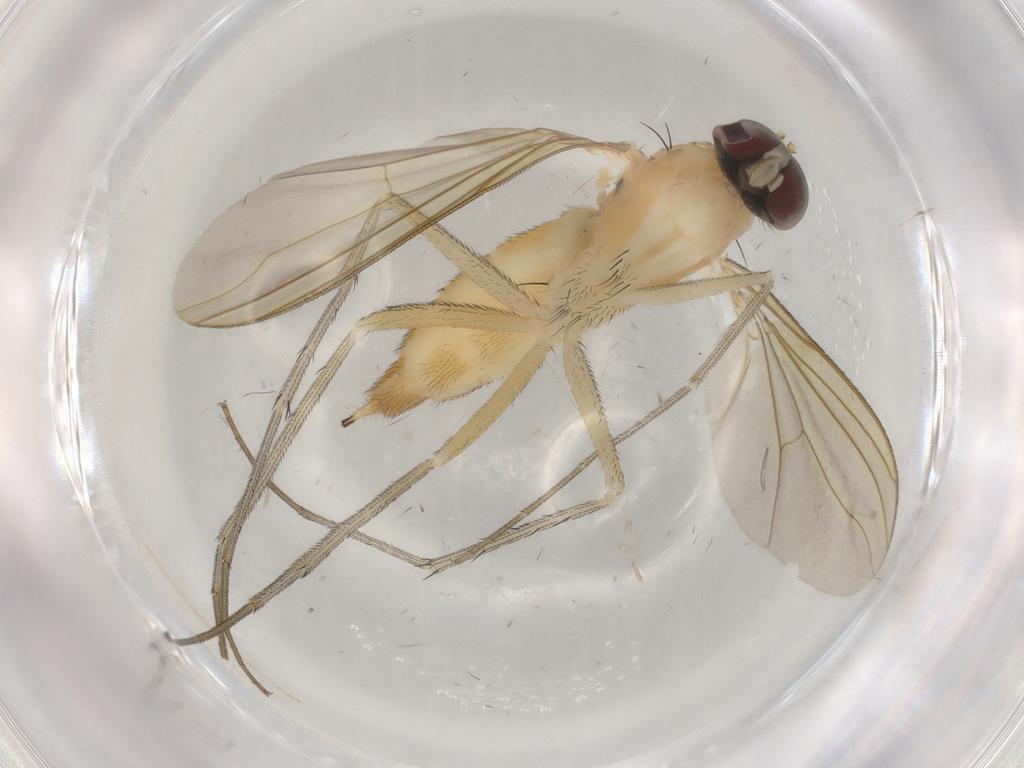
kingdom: Animalia
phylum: Arthropoda
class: Insecta
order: Diptera
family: Dolichopodidae
